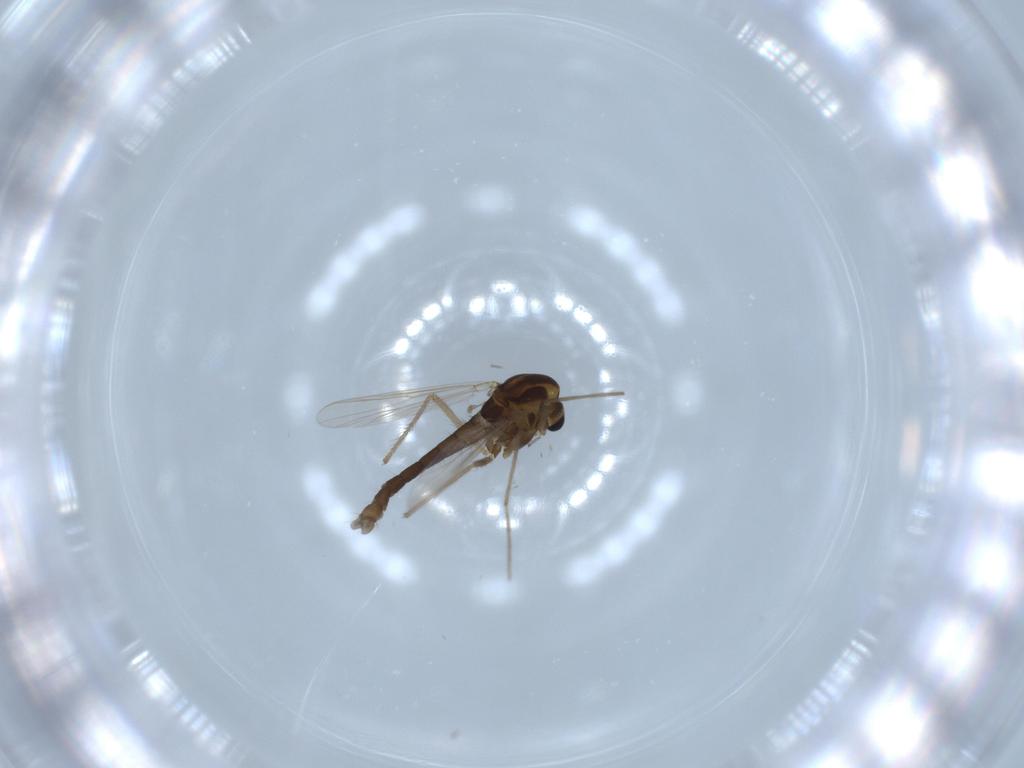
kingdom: Animalia
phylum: Arthropoda
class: Insecta
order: Diptera
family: Chironomidae
